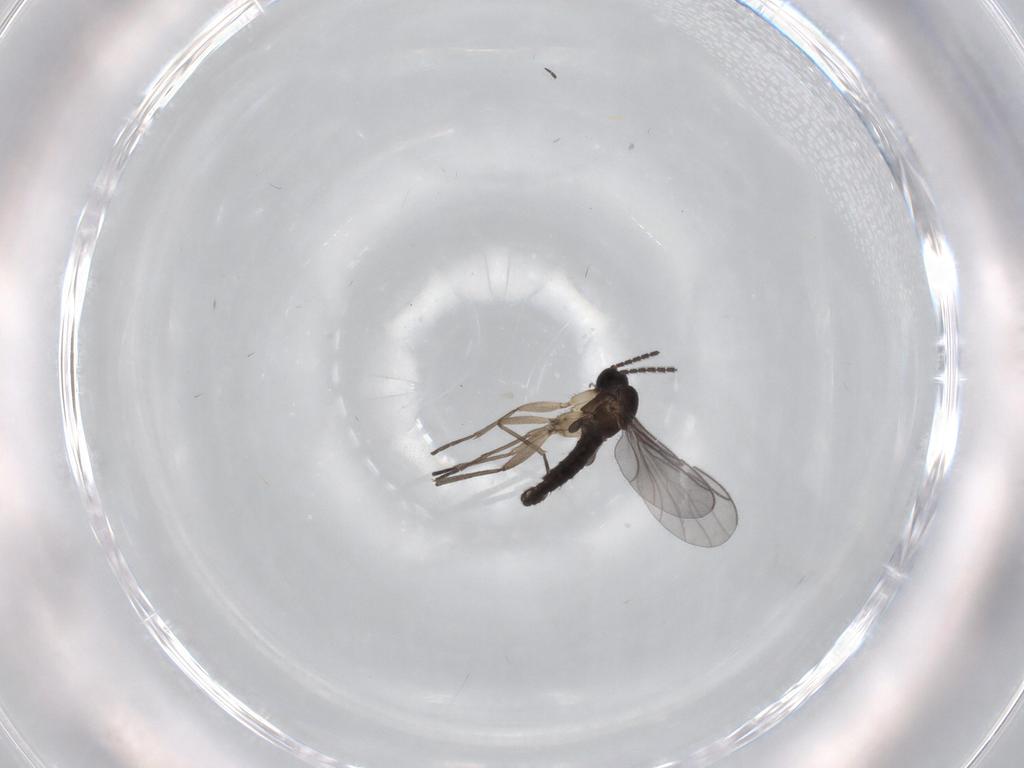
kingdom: Animalia
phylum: Arthropoda
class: Insecta
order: Diptera
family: Sciaridae
